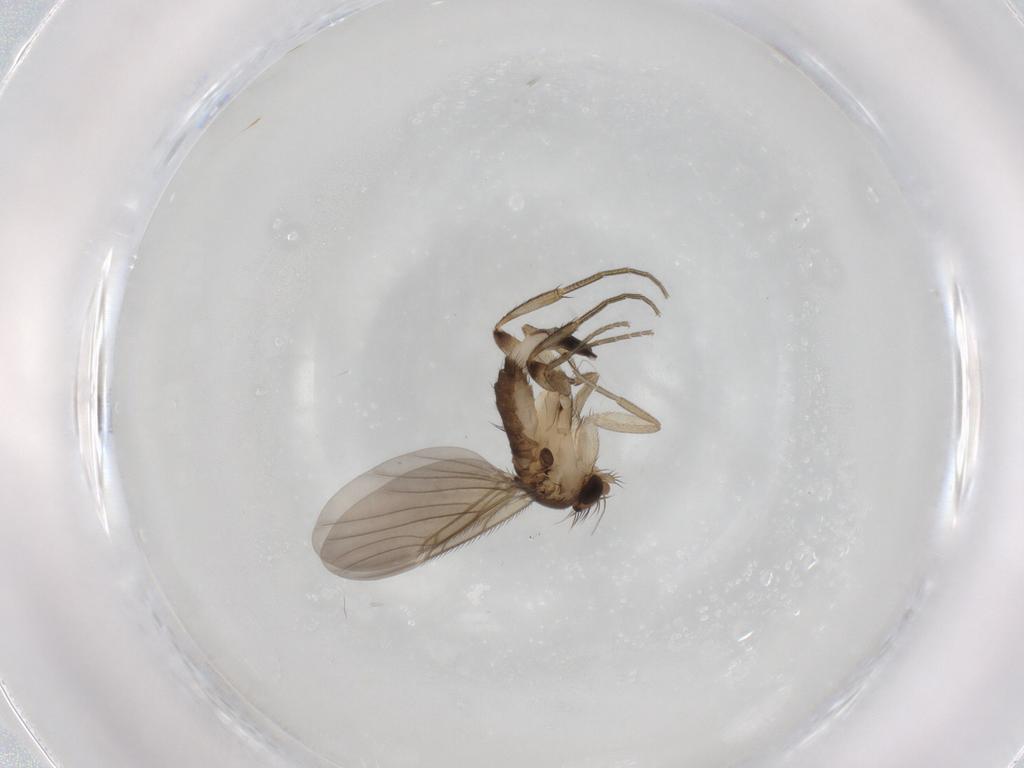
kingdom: Animalia
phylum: Arthropoda
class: Insecta
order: Diptera
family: Phoridae
